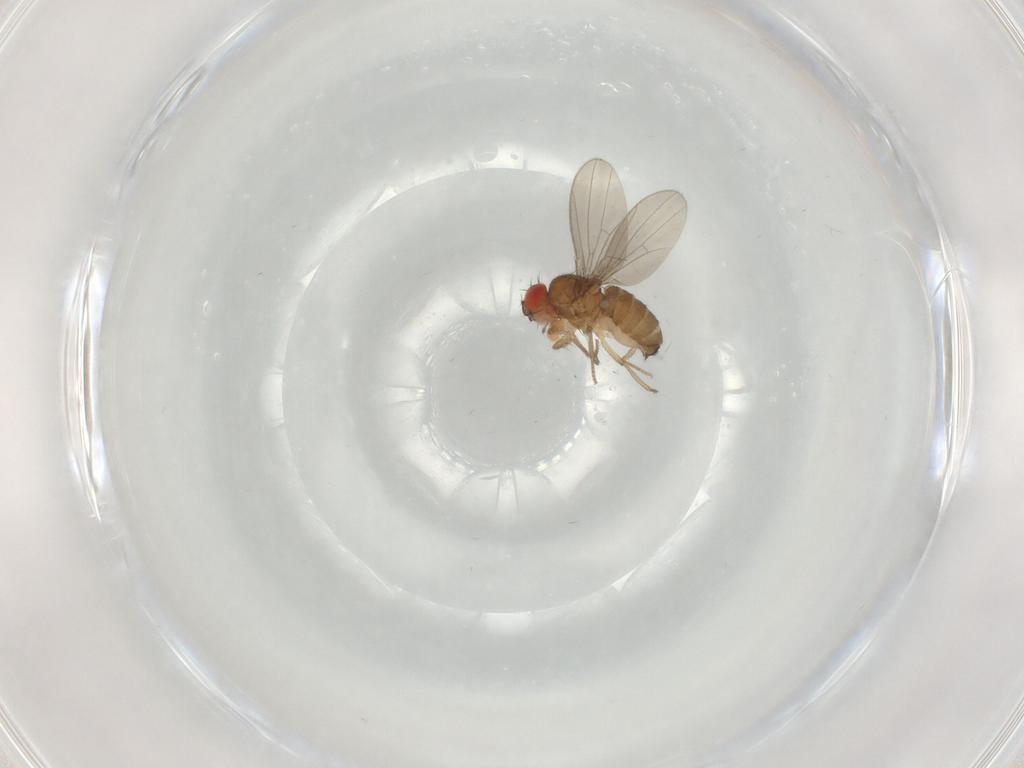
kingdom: Animalia
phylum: Arthropoda
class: Insecta
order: Diptera
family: Drosophilidae
